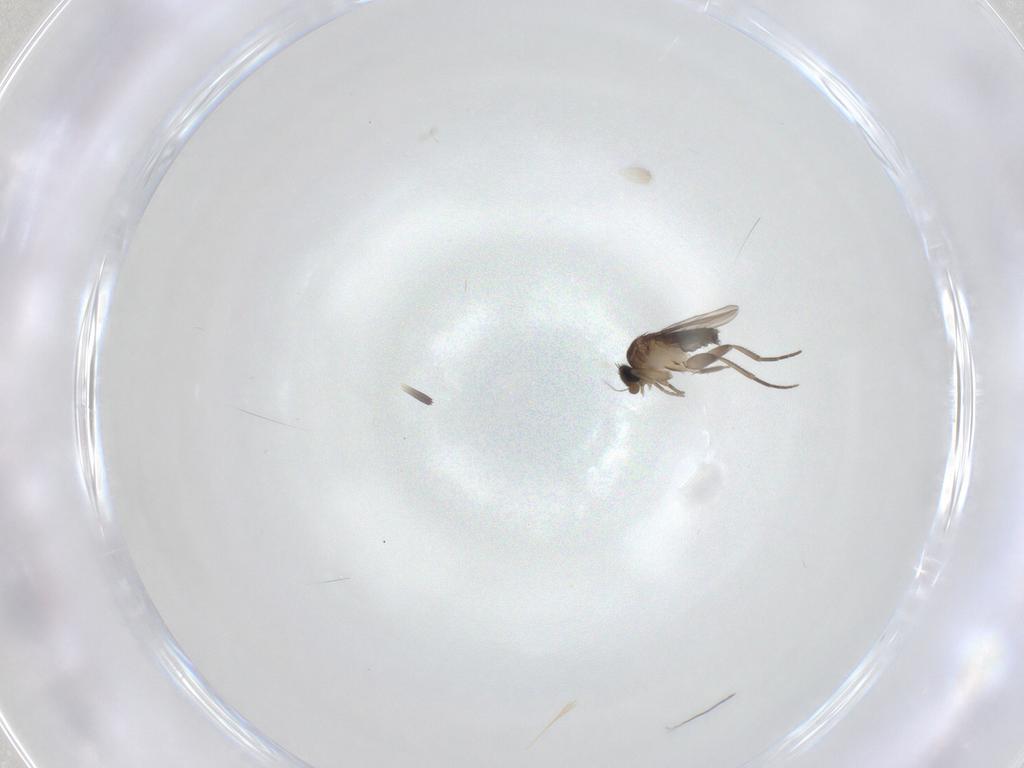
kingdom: Animalia
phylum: Arthropoda
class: Insecta
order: Diptera
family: Phoridae
